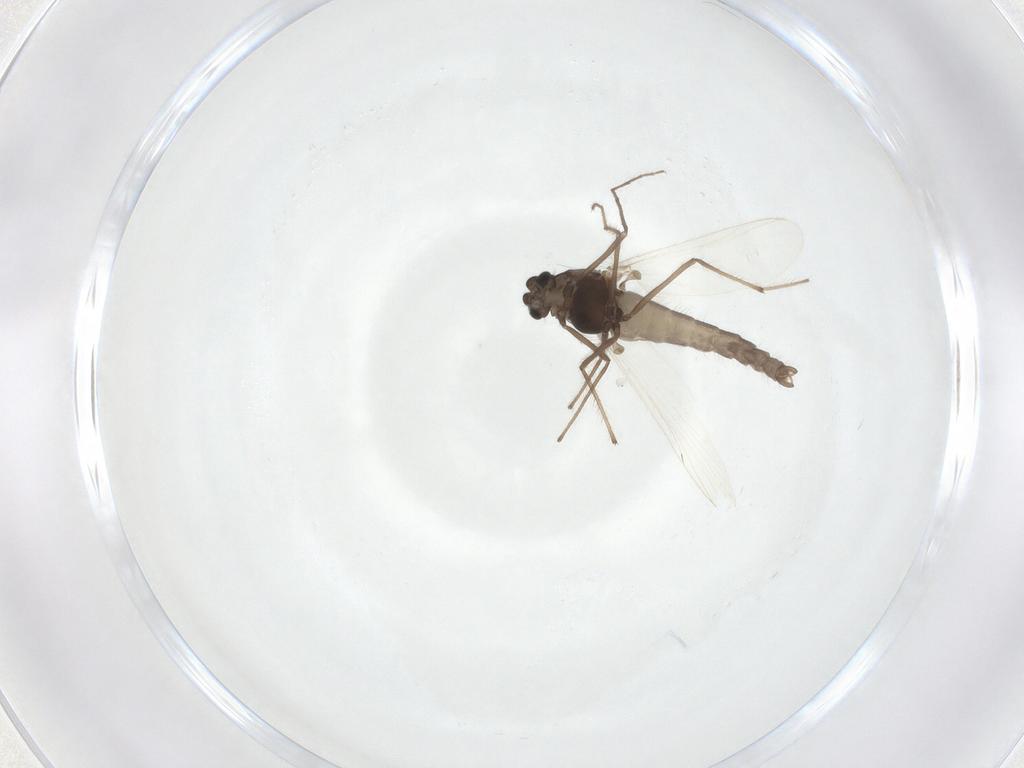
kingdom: Animalia
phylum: Arthropoda
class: Insecta
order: Diptera
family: Chironomidae
